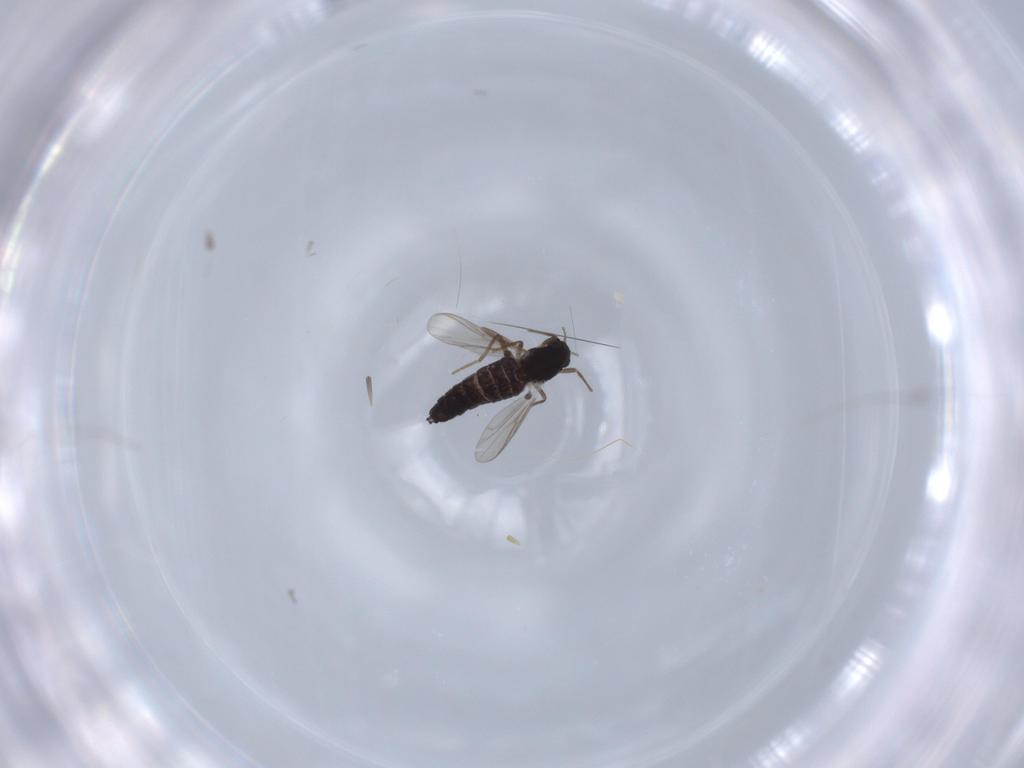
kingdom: Animalia
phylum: Arthropoda
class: Insecta
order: Diptera
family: Chironomidae
